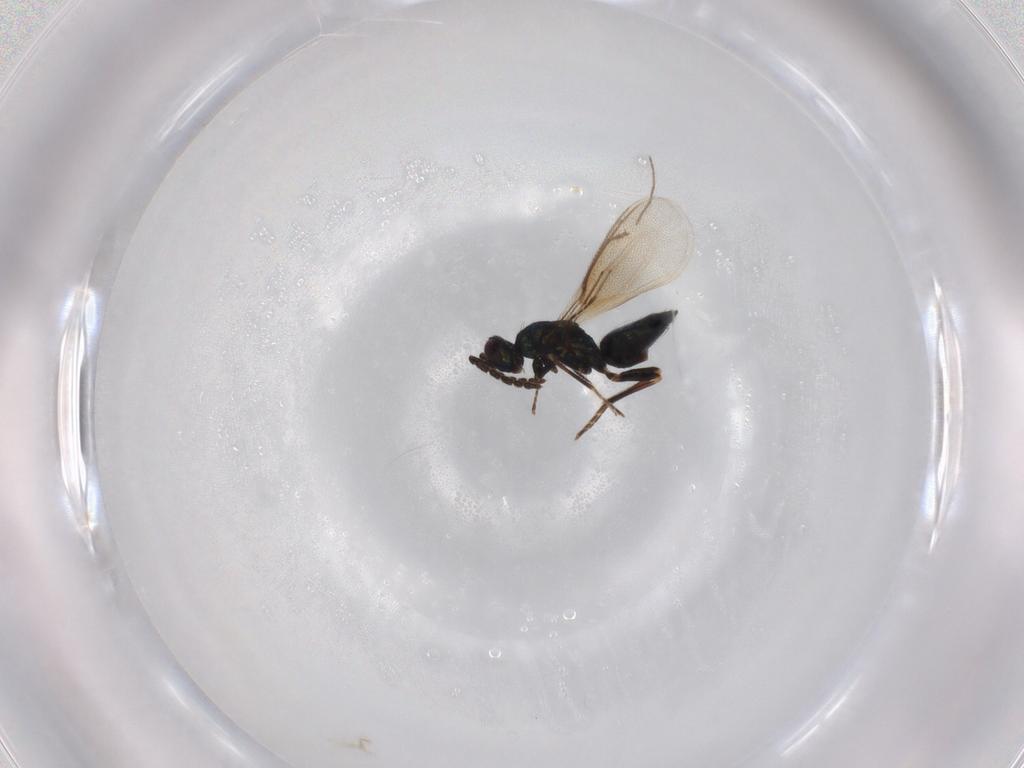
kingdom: Animalia
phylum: Arthropoda
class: Insecta
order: Hymenoptera
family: Eulophidae
